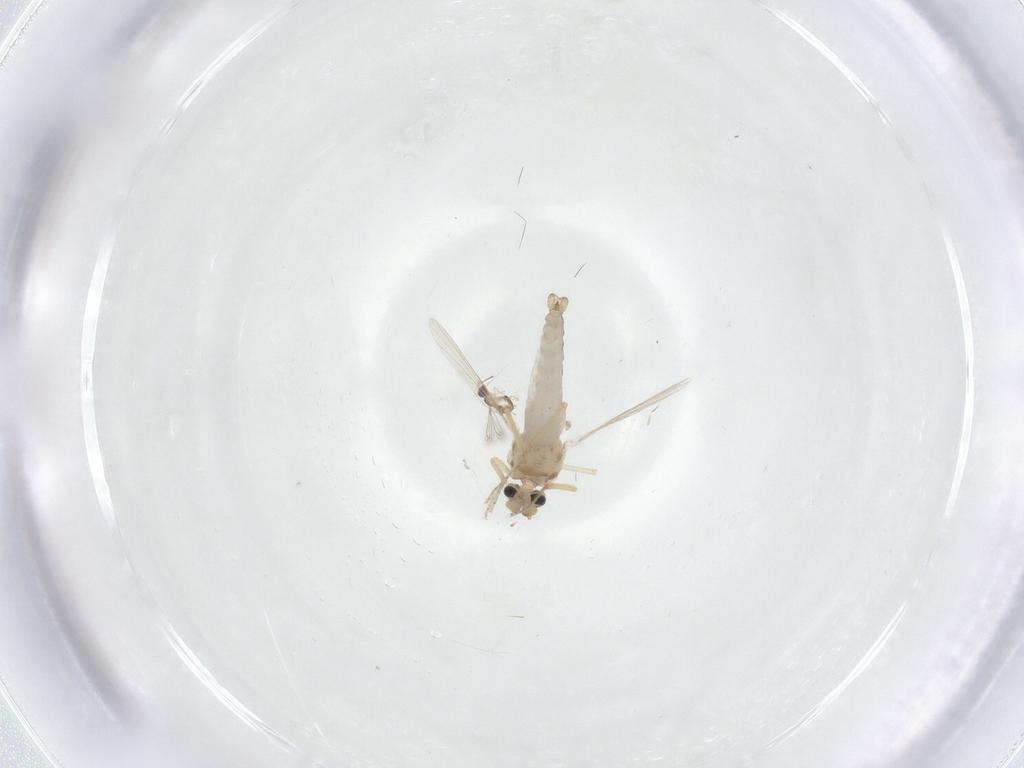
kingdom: Animalia
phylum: Arthropoda
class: Insecta
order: Diptera
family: Ceratopogonidae
